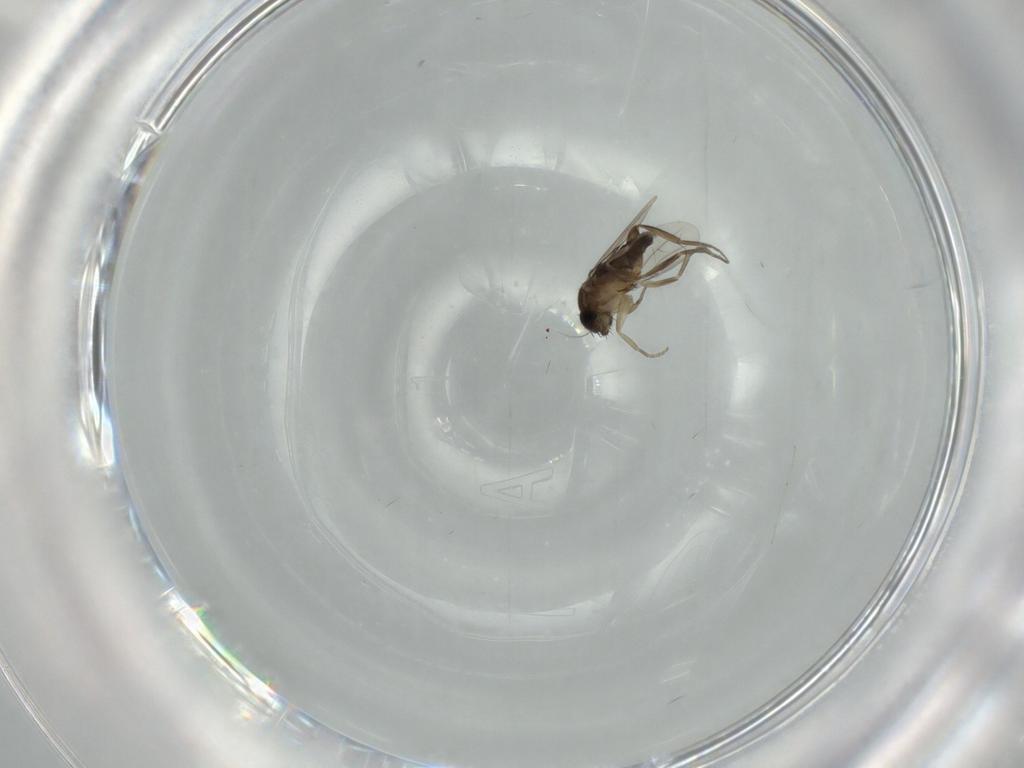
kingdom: Animalia
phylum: Arthropoda
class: Insecta
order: Diptera
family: Phoridae
